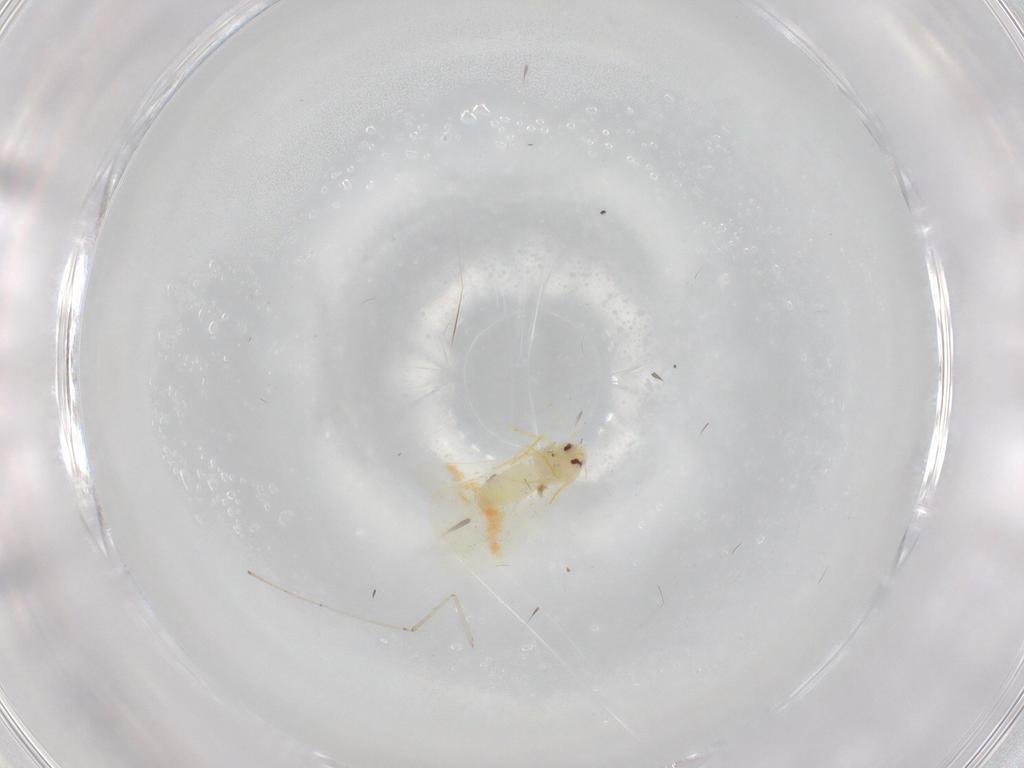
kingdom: Animalia
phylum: Arthropoda
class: Insecta
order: Hemiptera
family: Aleyrodidae
